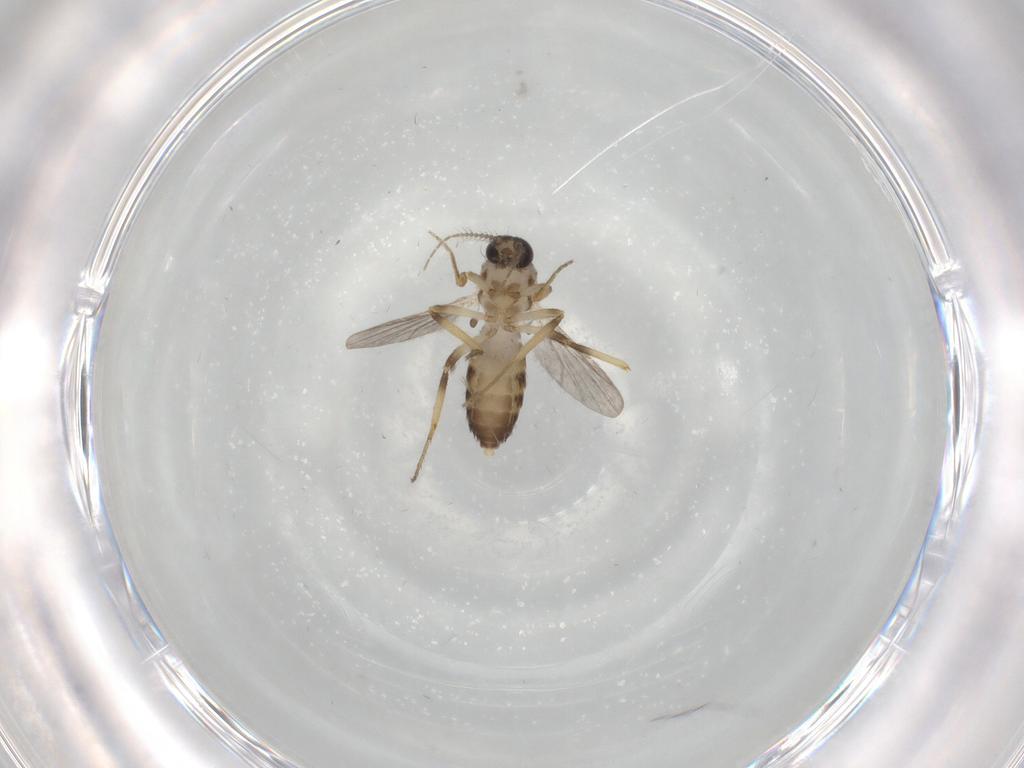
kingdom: Animalia
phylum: Arthropoda
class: Insecta
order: Diptera
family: Ceratopogonidae
